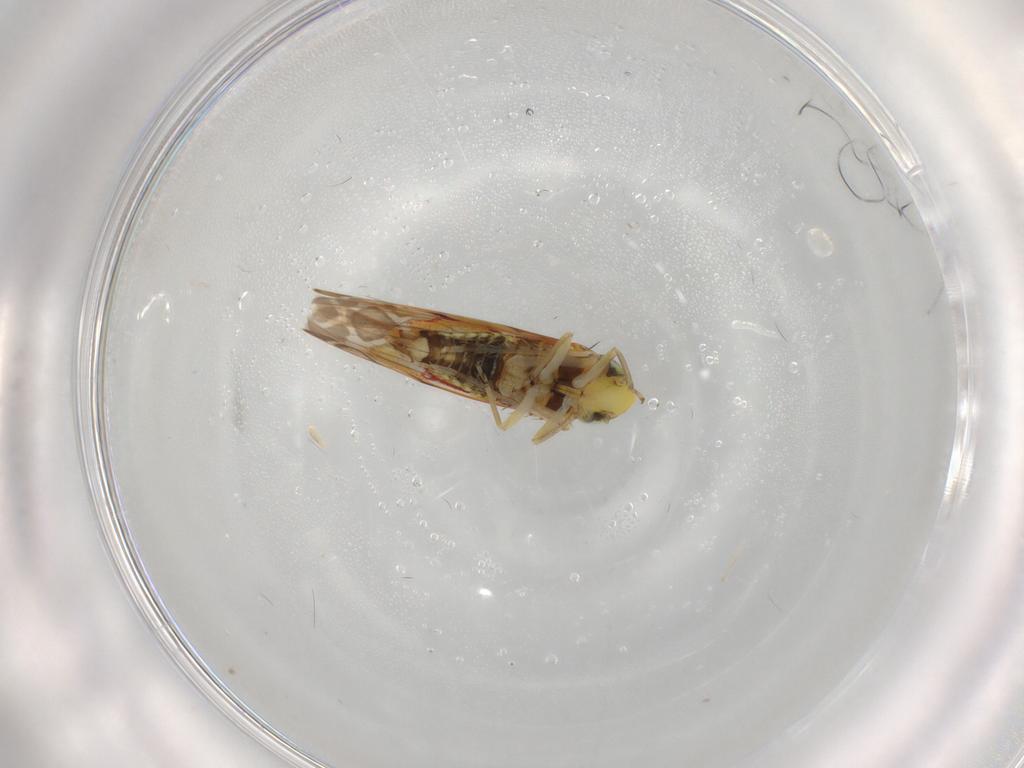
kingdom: Animalia
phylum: Arthropoda
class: Insecta
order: Hemiptera
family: Cicadellidae
